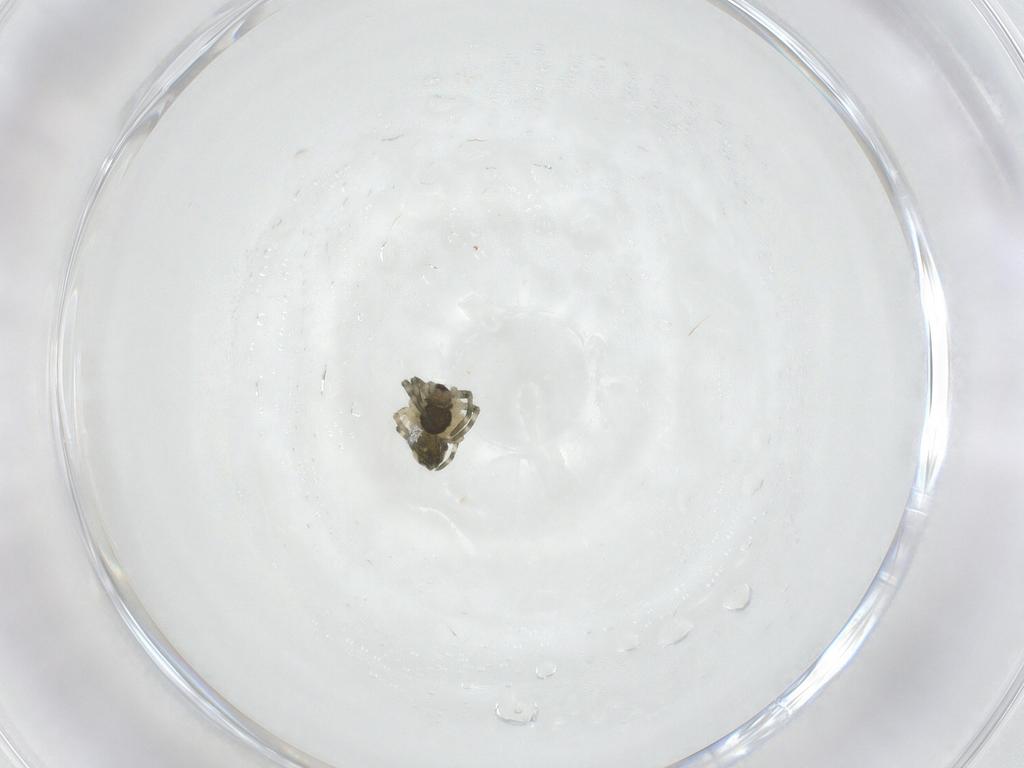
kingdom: Animalia
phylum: Arthropoda
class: Arachnida
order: Araneae
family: Tetragnathidae
